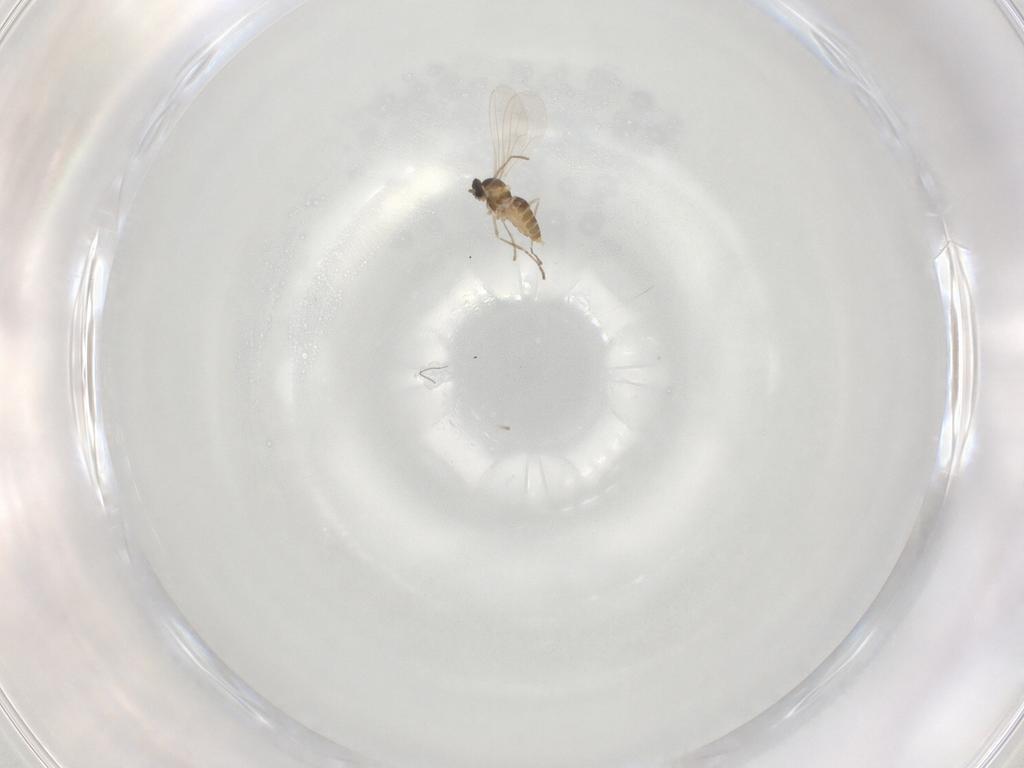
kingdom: Animalia
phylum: Arthropoda
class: Insecta
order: Diptera
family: Cecidomyiidae
